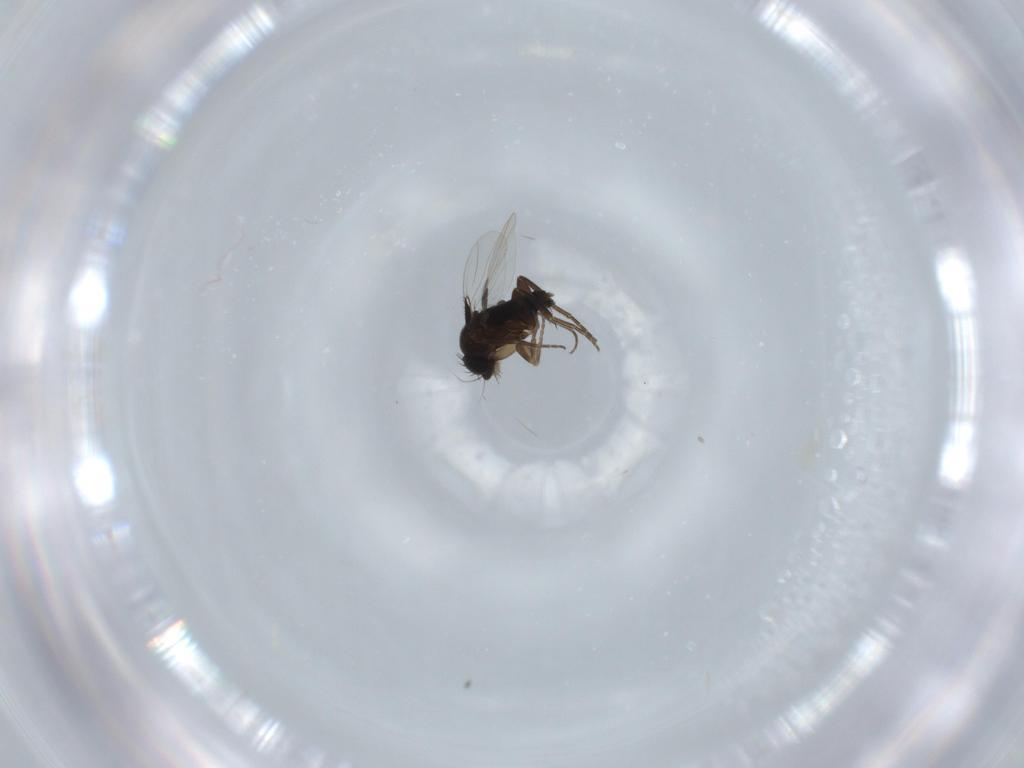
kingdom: Animalia
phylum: Arthropoda
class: Insecta
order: Diptera
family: Phoridae
